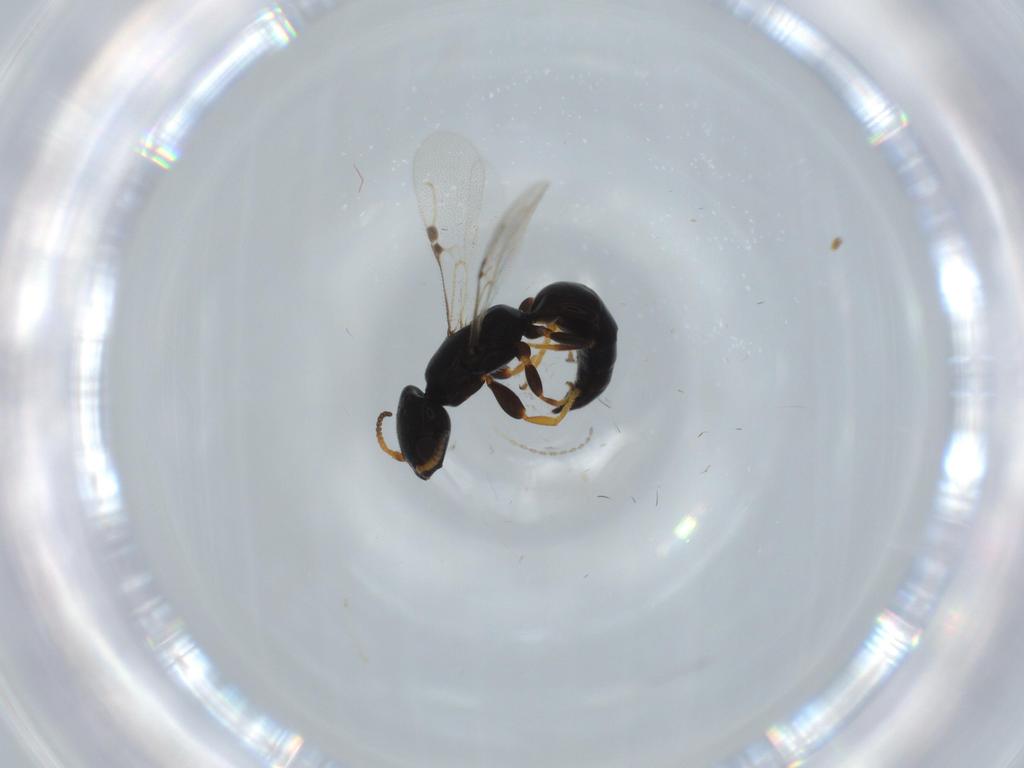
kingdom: Animalia
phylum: Arthropoda
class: Insecta
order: Hymenoptera
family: Bethylidae
